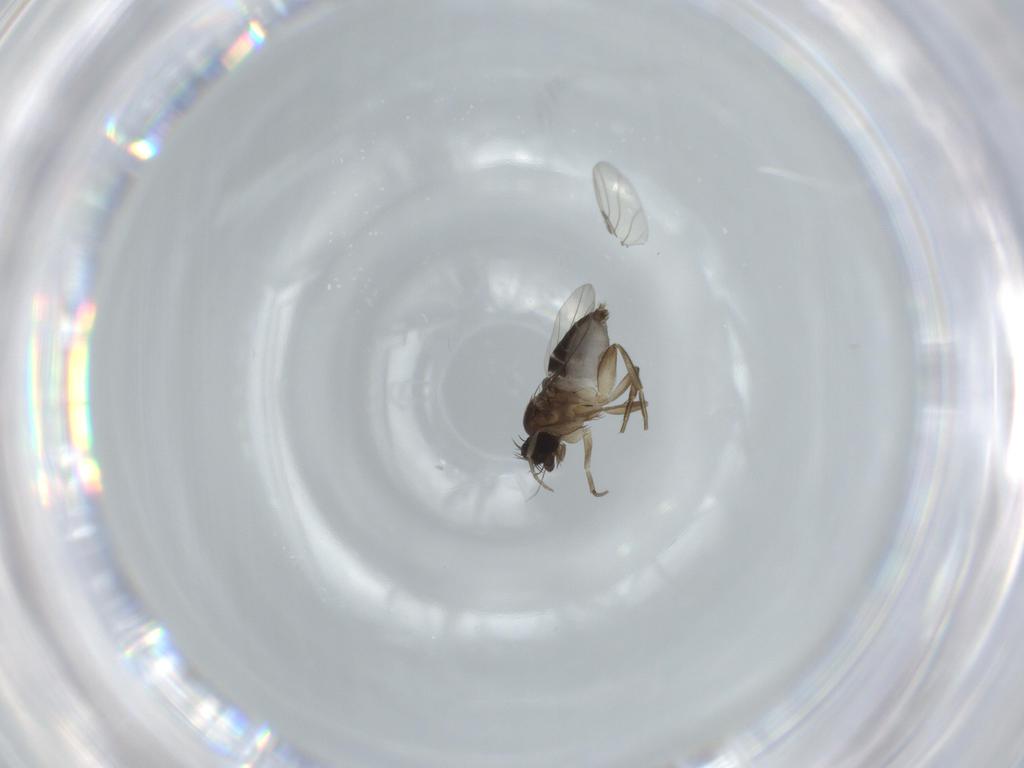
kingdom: Animalia
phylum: Arthropoda
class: Insecta
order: Diptera
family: Phoridae
